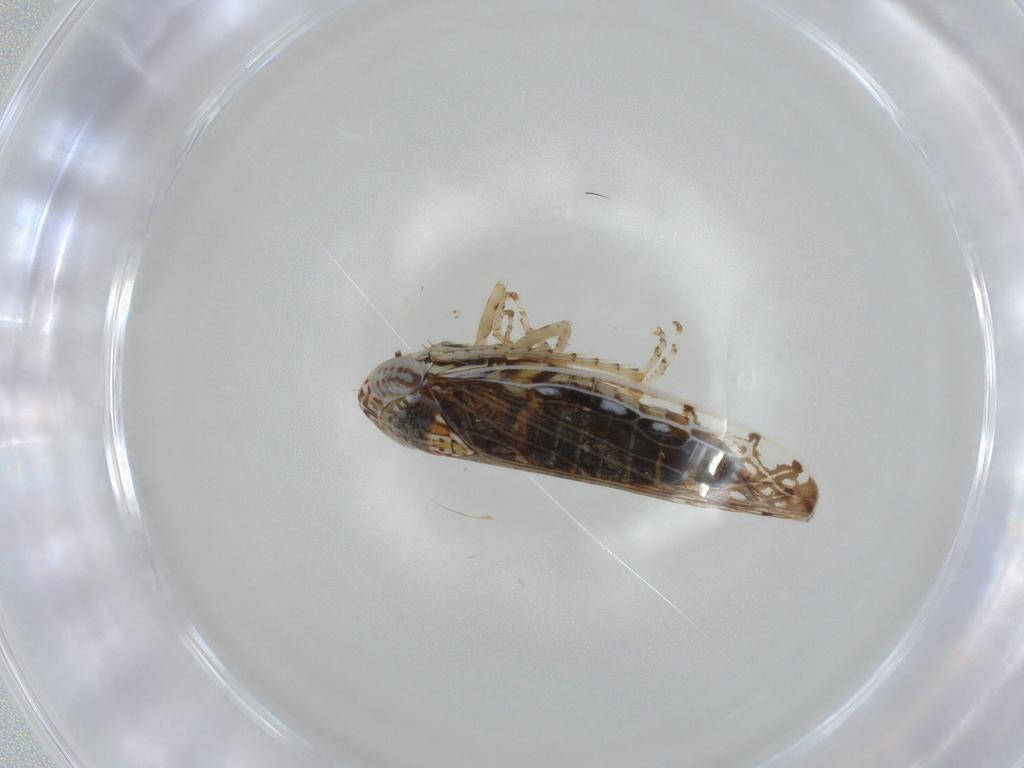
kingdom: Animalia
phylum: Arthropoda
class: Insecta
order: Hemiptera
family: Cicadellidae
